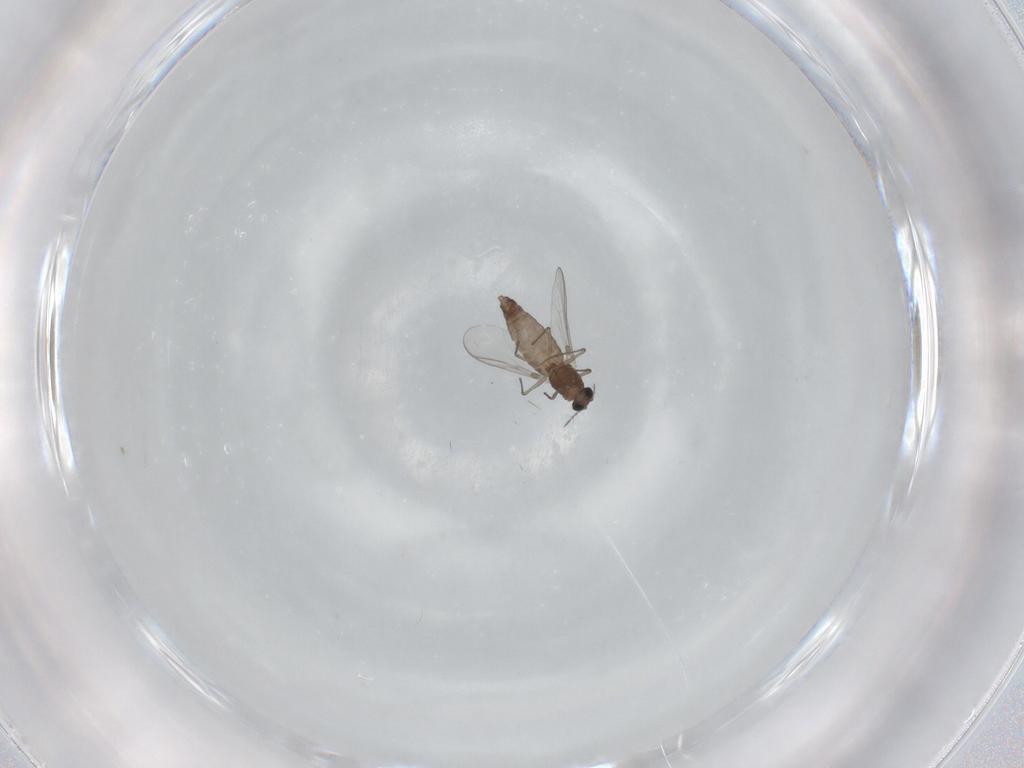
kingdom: Animalia
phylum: Arthropoda
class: Insecta
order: Diptera
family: Chironomidae
